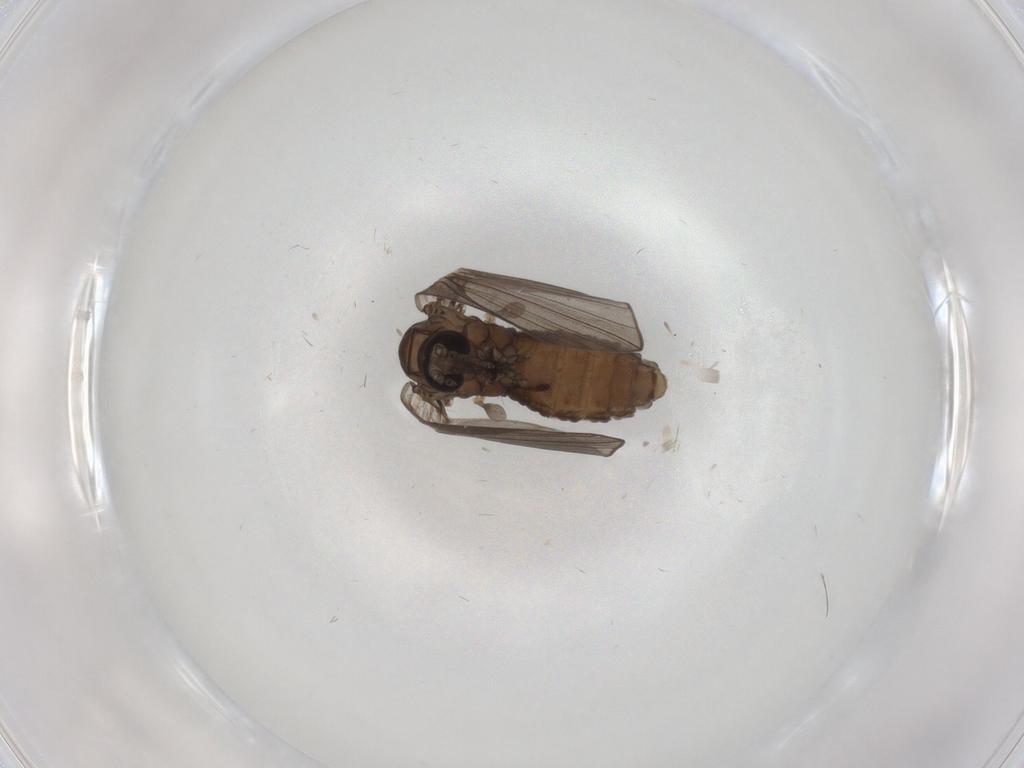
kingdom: Animalia
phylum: Arthropoda
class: Insecta
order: Diptera
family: Psychodidae
